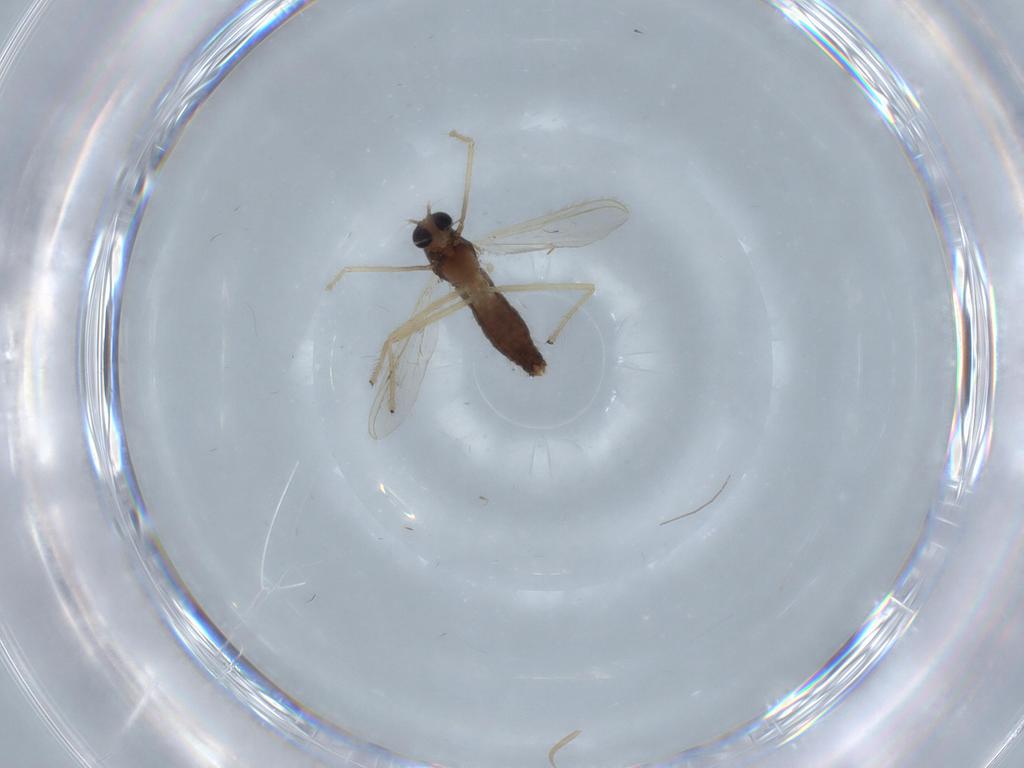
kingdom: Animalia
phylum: Arthropoda
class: Insecta
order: Diptera
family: Chironomidae
